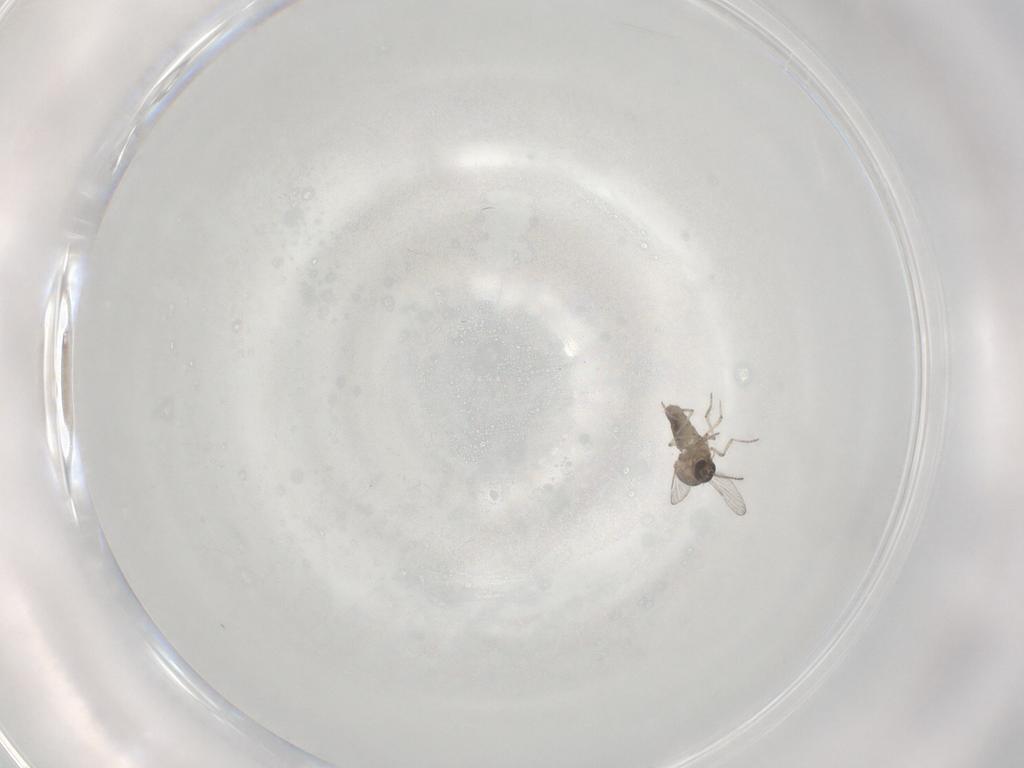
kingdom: Animalia
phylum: Arthropoda
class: Insecta
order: Diptera
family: Ceratopogonidae
